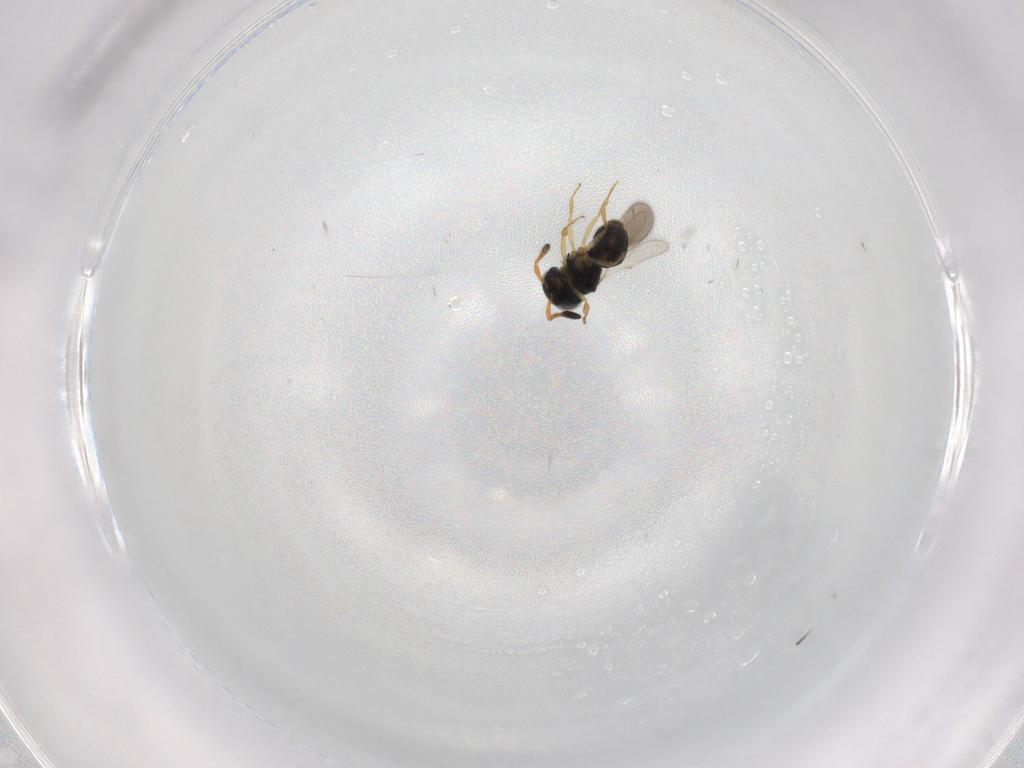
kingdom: Animalia
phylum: Arthropoda
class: Insecta
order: Hymenoptera
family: Scelionidae
